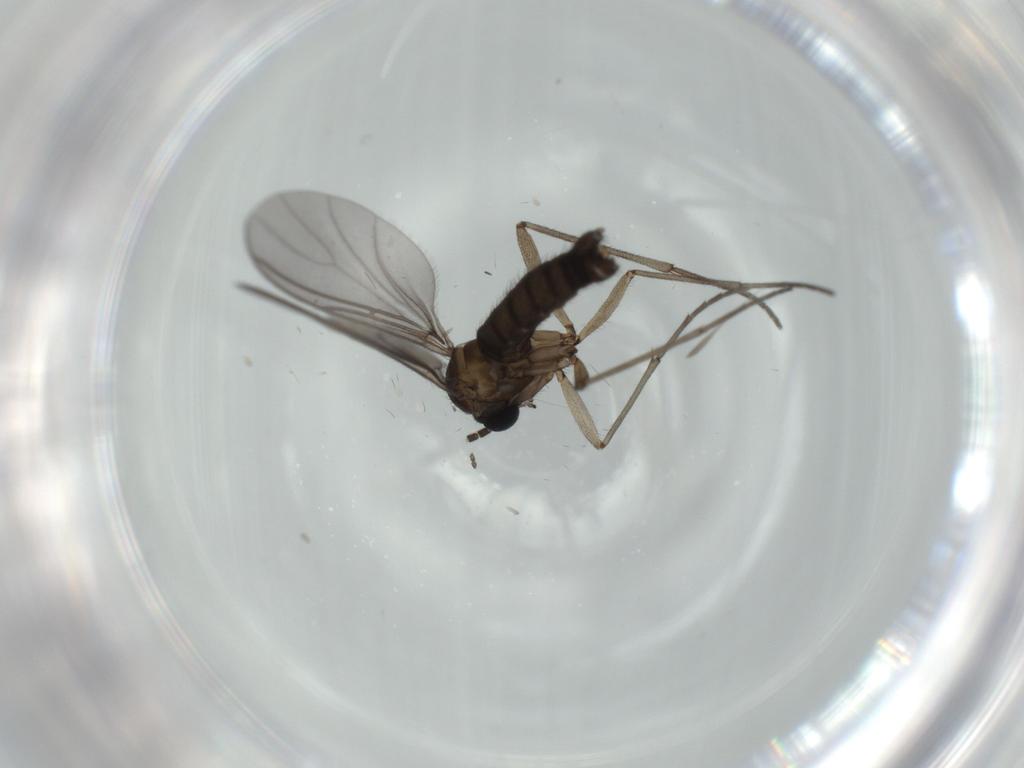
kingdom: Animalia
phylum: Arthropoda
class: Insecta
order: Diptera
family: Sciaridae
